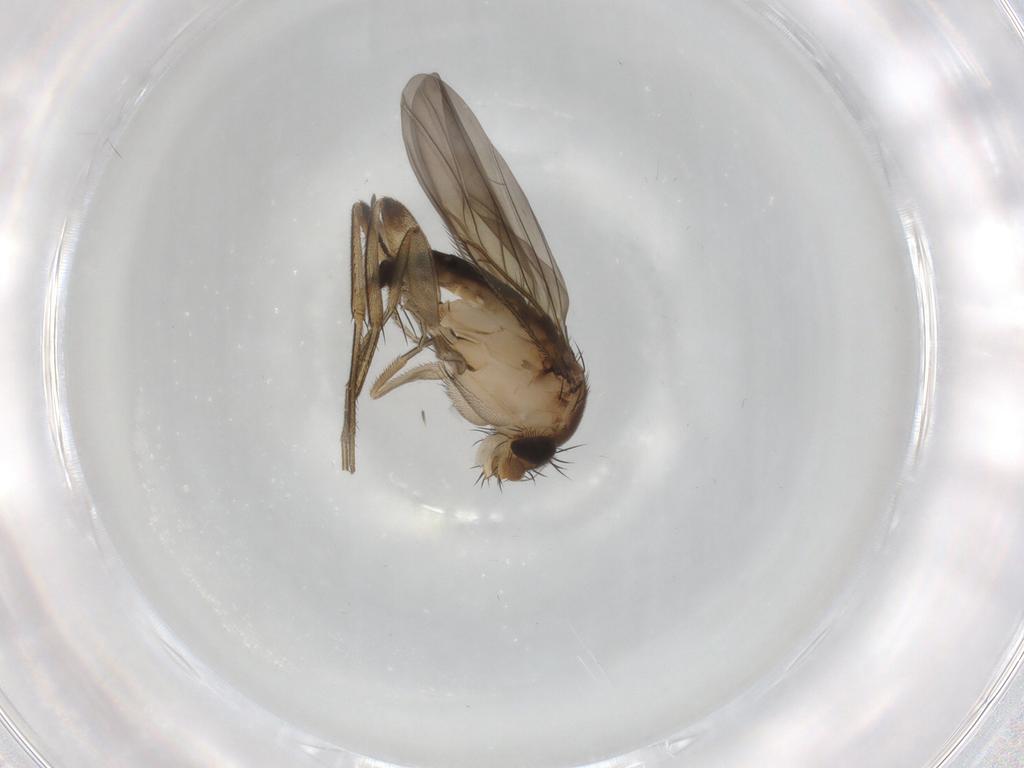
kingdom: Animalia
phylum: Arthropoda
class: Insecta
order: Diptera
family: Phoridae
